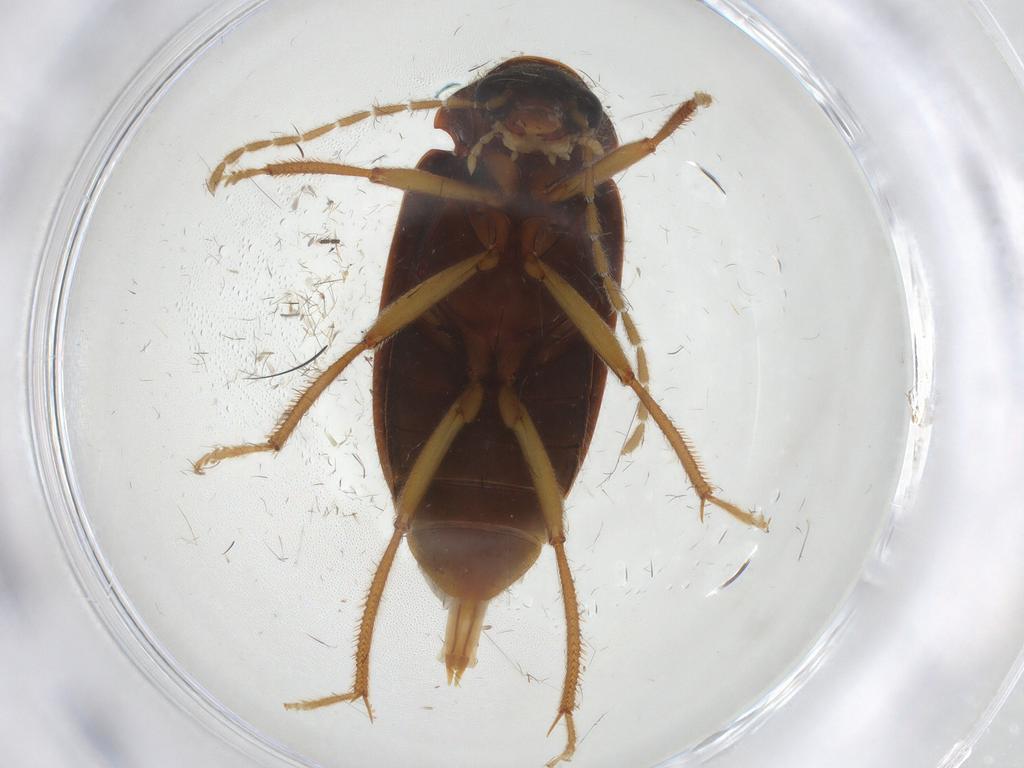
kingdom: Animalia
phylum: Arthropoda
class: Insecta
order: Coleoptera
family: Ptilodactylidae
